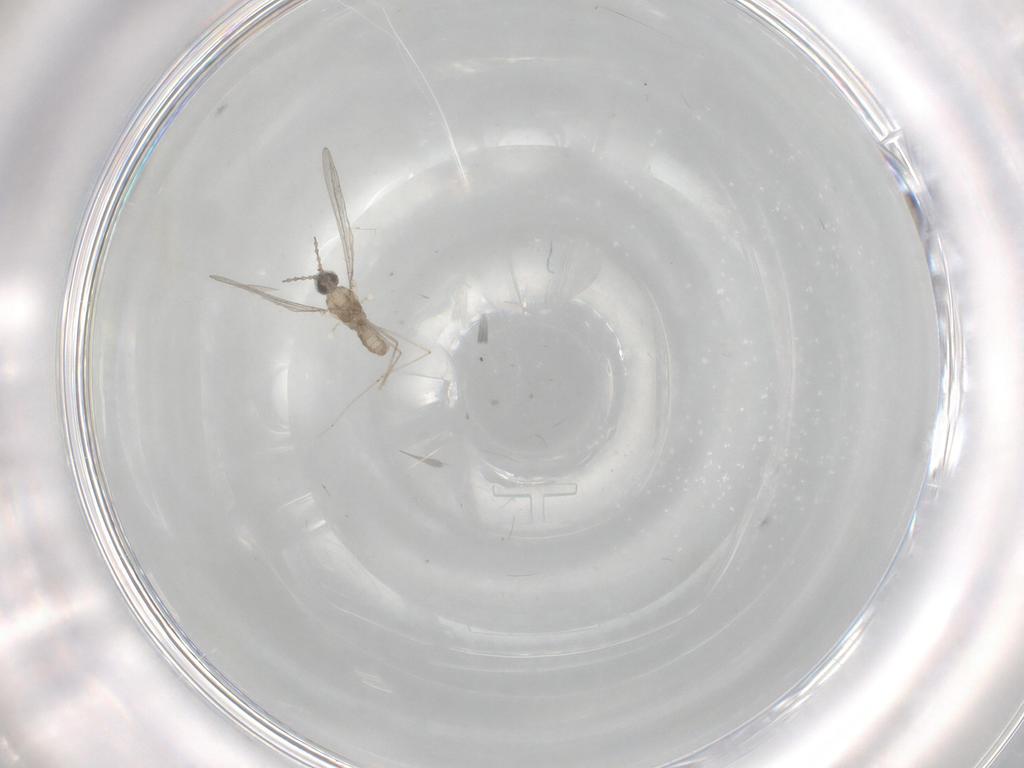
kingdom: Animalia
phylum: Arthropoda
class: Insecta
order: Diptera
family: Cecidomyiidae
